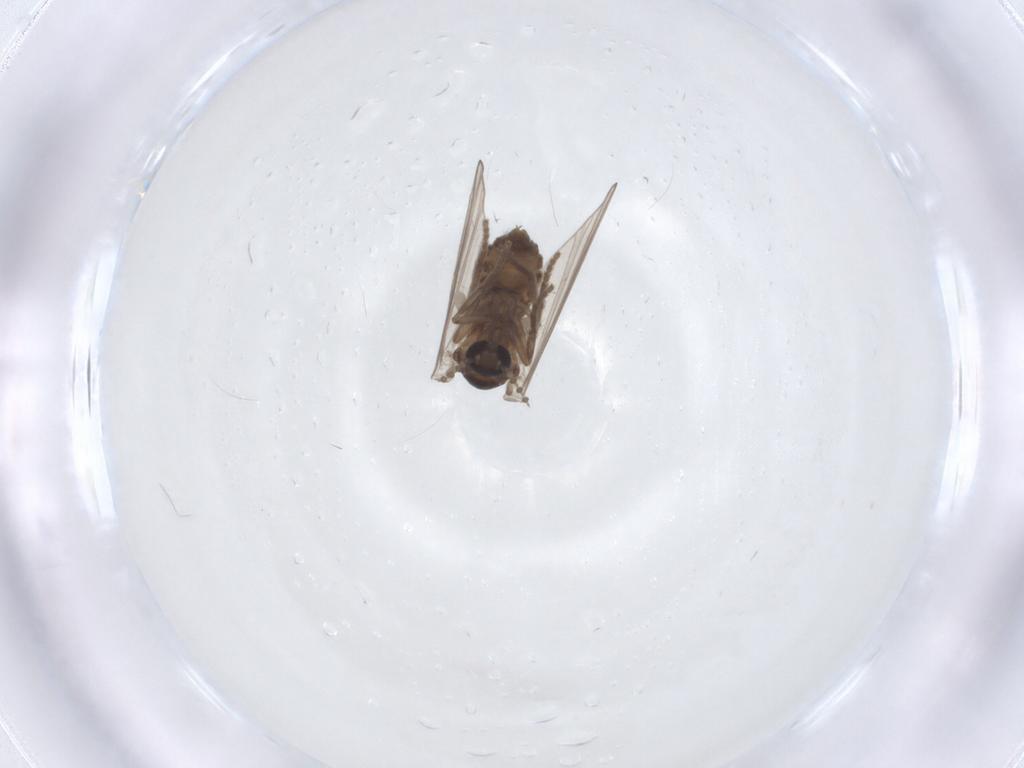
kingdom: Animalia
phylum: Arthropoda
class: Insecta
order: Diptera
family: Psychodidae
